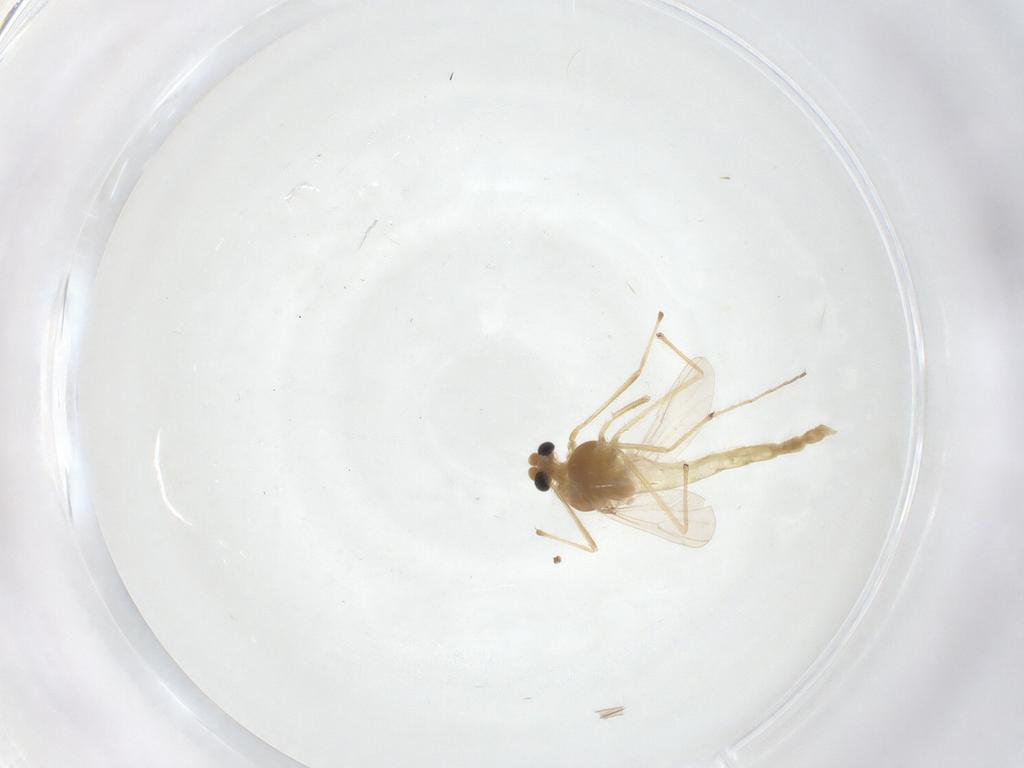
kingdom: Animalia
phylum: Arthropoda
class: Insecta
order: Diptera
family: Chironomidae
